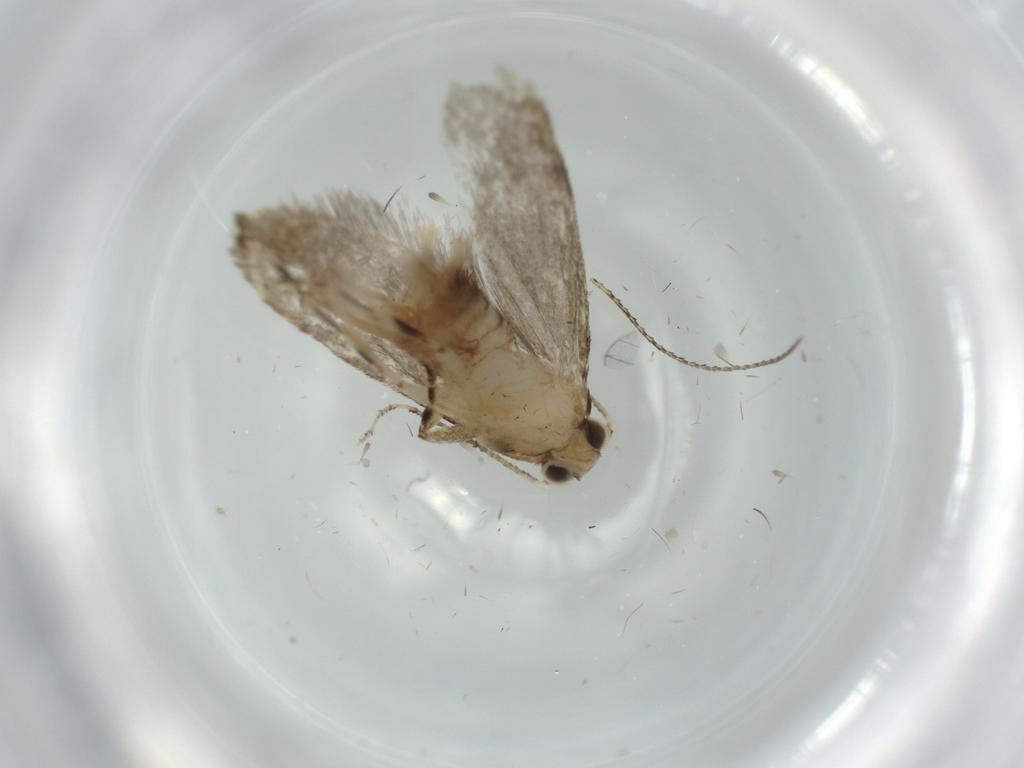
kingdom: Animalia
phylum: Arthropoda
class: Insecta
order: Lepidoptera
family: Tineidae
